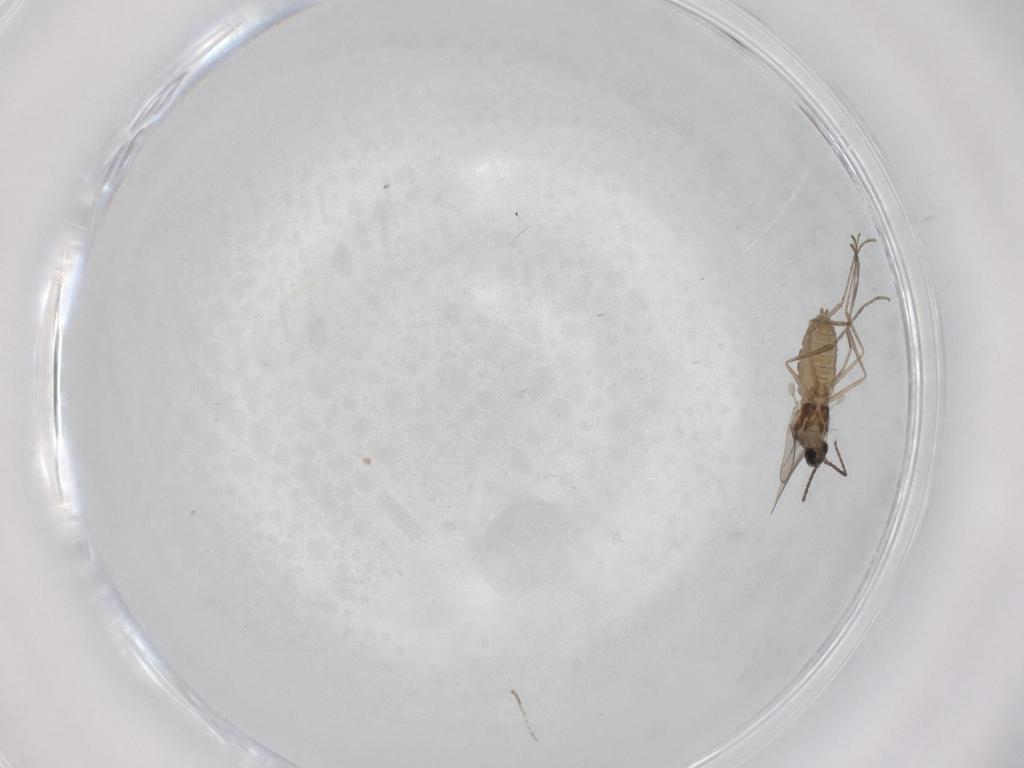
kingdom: Animalia
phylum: Arthropoda
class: Insecta
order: Diptera
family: Cecidomyiidae
